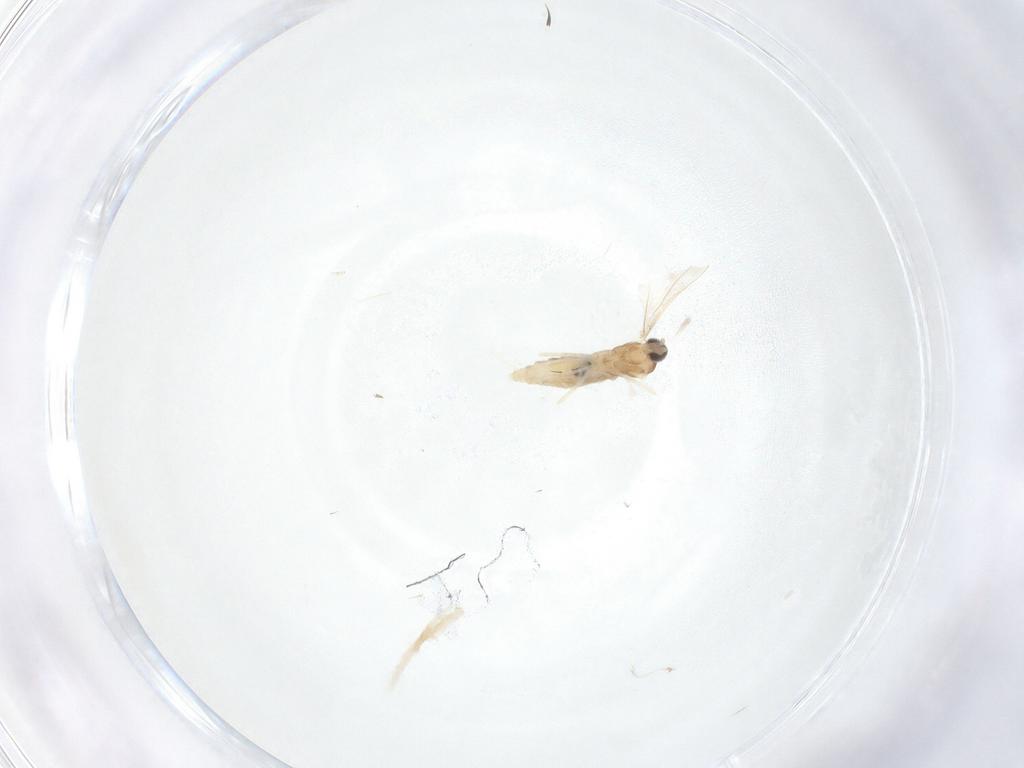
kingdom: Animalia
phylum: Arthropoda
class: Insecta
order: Diptera
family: Cecidomyiidae
